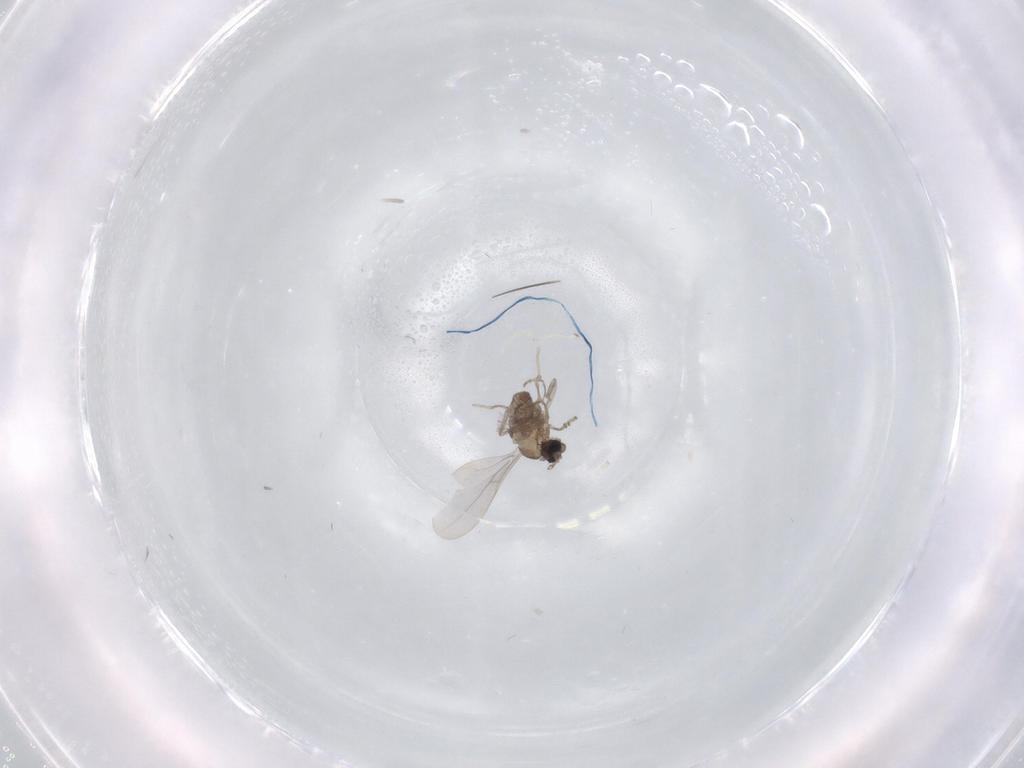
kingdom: Animalia
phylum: Arthropoda
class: Insecta
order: Diptera
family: Cecidomyiidae
